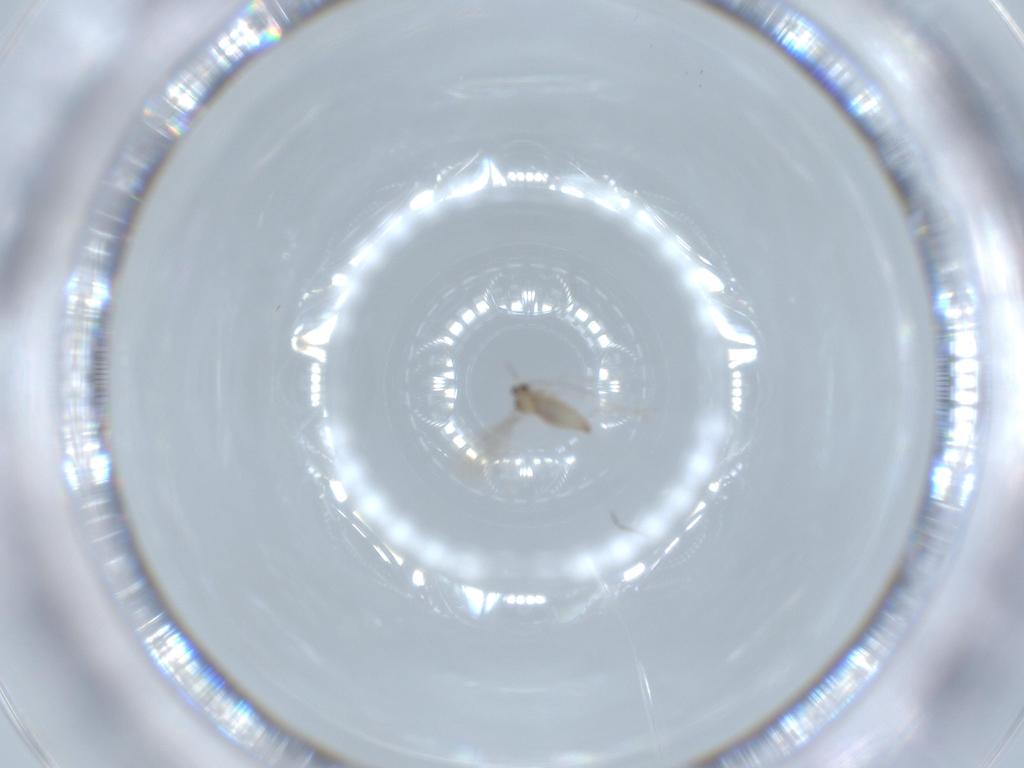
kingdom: Animalia
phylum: Arthropoda
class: Insecta
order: Diptera
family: Cecidomyiidae
